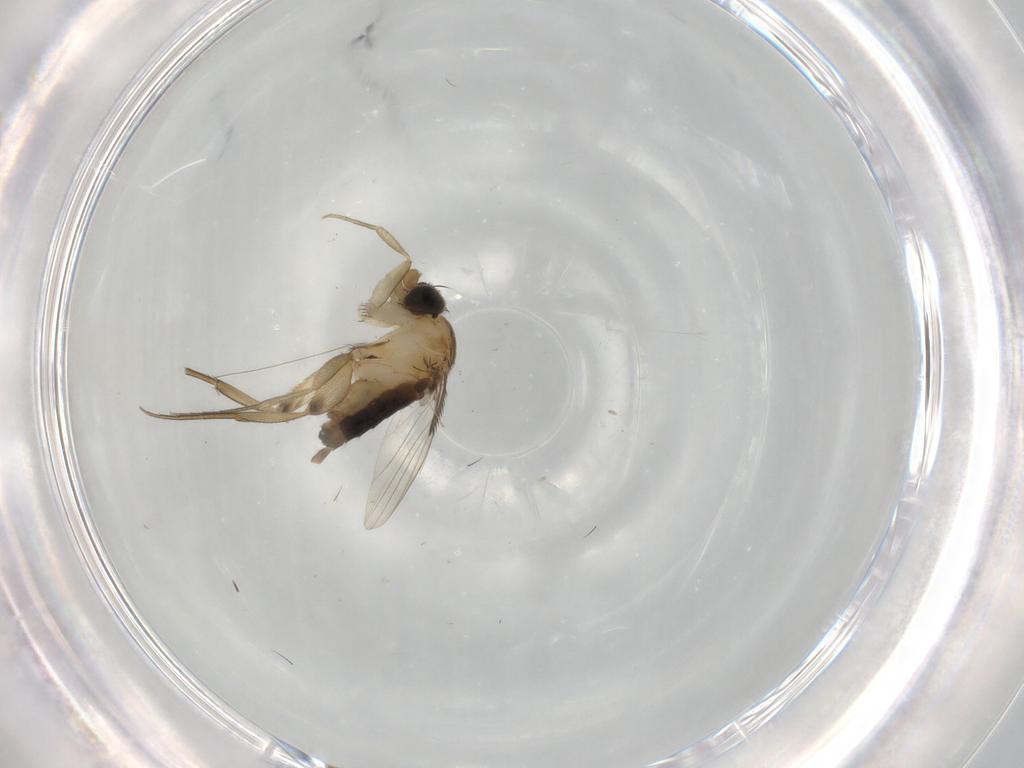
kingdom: Animalia
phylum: Arthropoda
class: Insecta
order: Diptera
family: Phoridae
